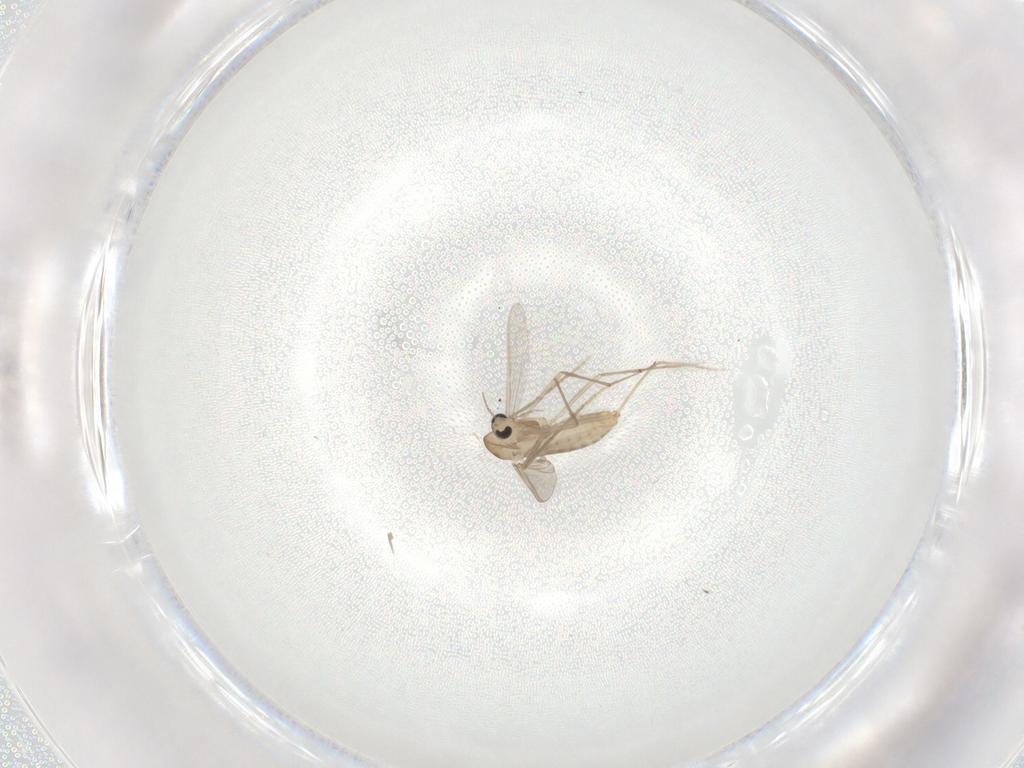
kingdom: Animalia
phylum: Arthropoda
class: Insecta
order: Diptera
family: Chironomidae
